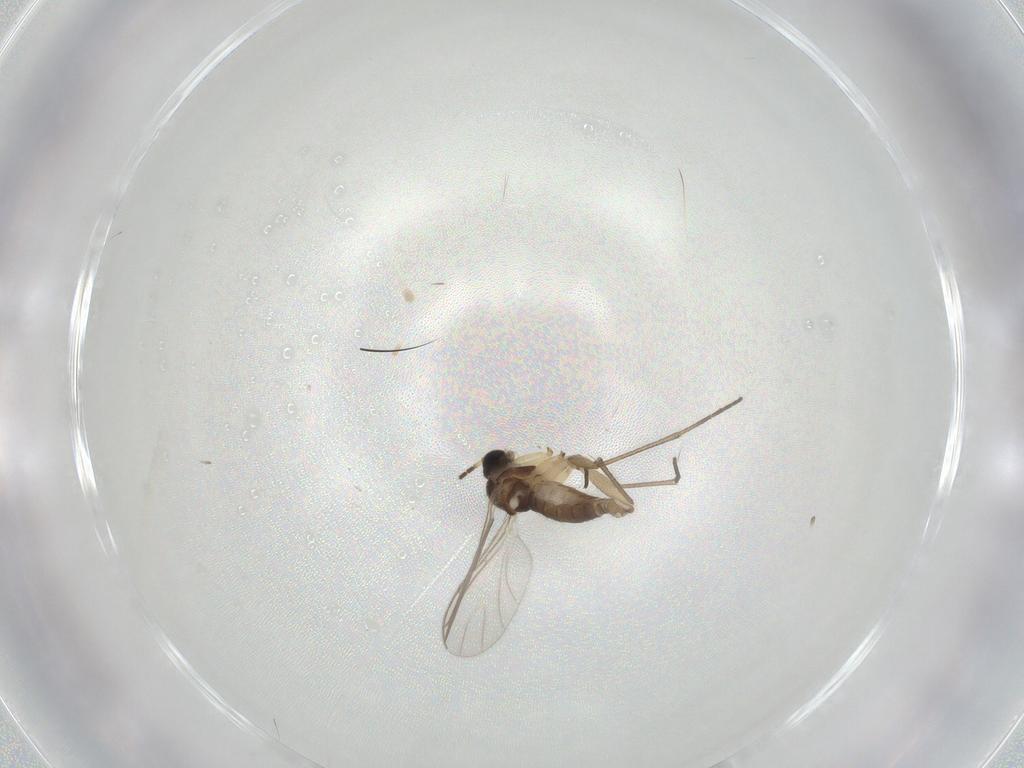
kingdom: Animalia
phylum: Arthropoda
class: Insecta
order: Diptera
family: Sciaridae
